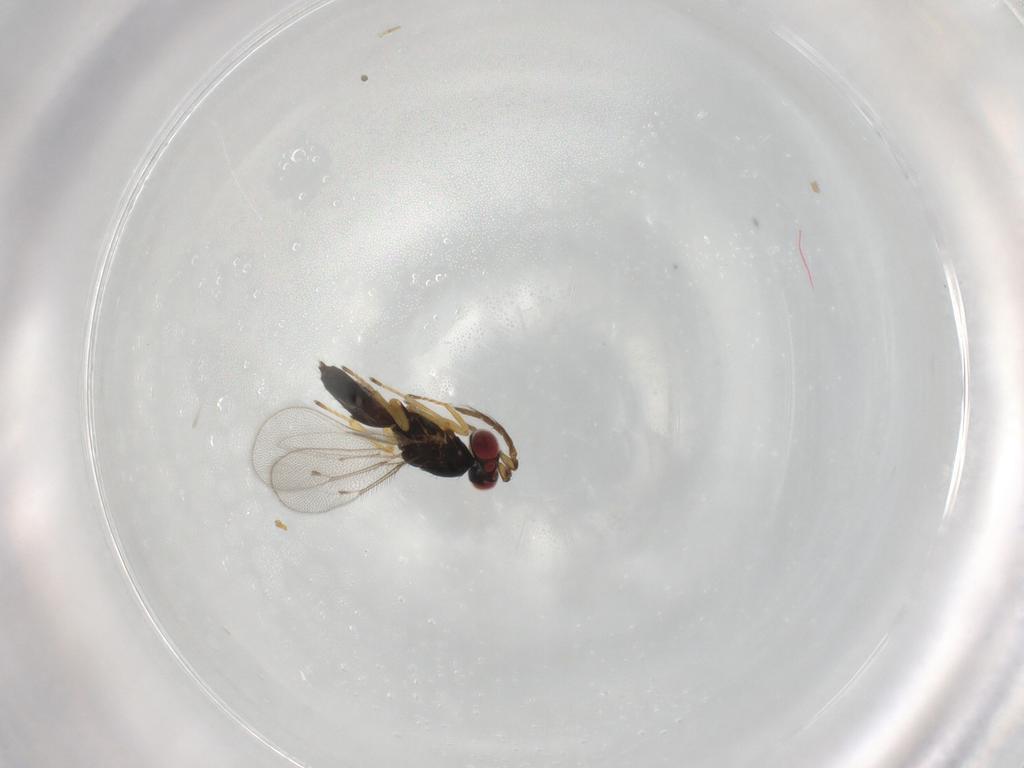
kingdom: Animalia
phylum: Arthropoda
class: Insecta
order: Hymenoptera
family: Eulophidae
